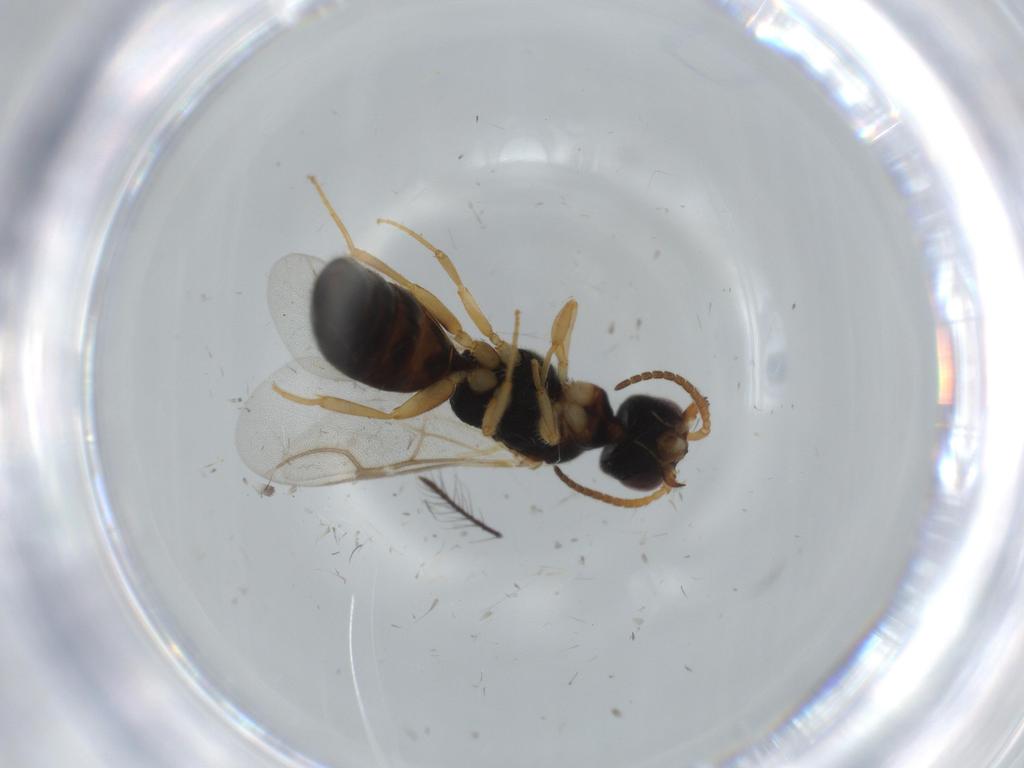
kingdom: Animalia
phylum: Arthropoda
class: Insecta
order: Hymenoptera
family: Bethylidae
